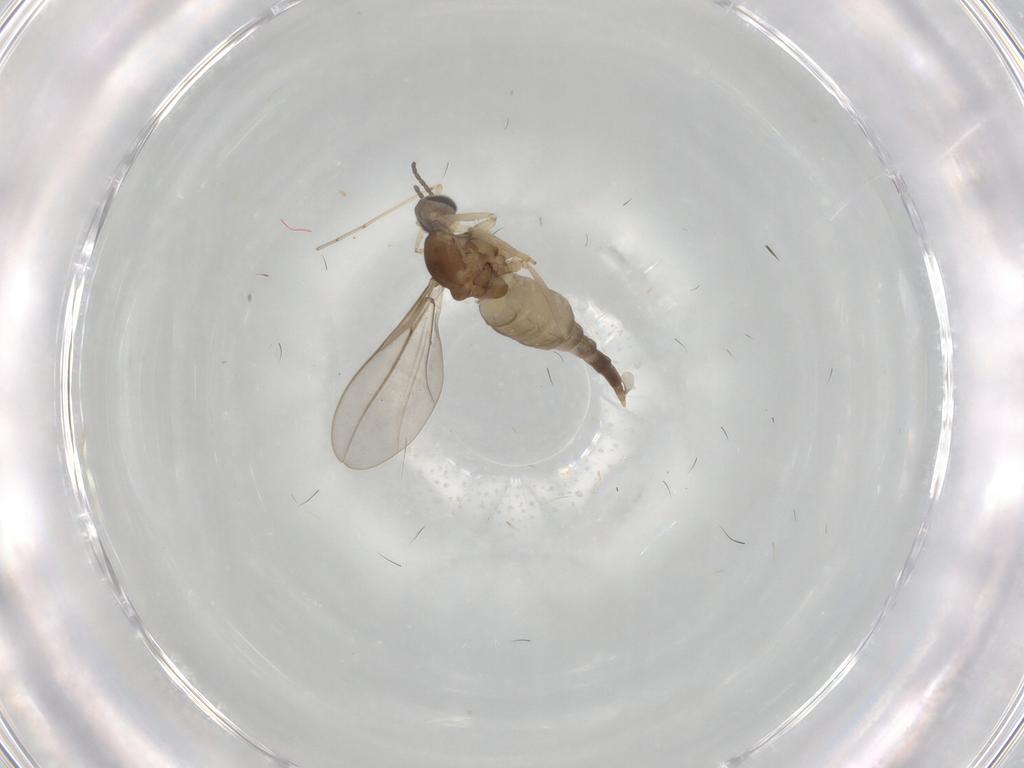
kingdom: Animalia
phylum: Arthropoda
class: Insecta
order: Diptera
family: Cecidomyiidae
